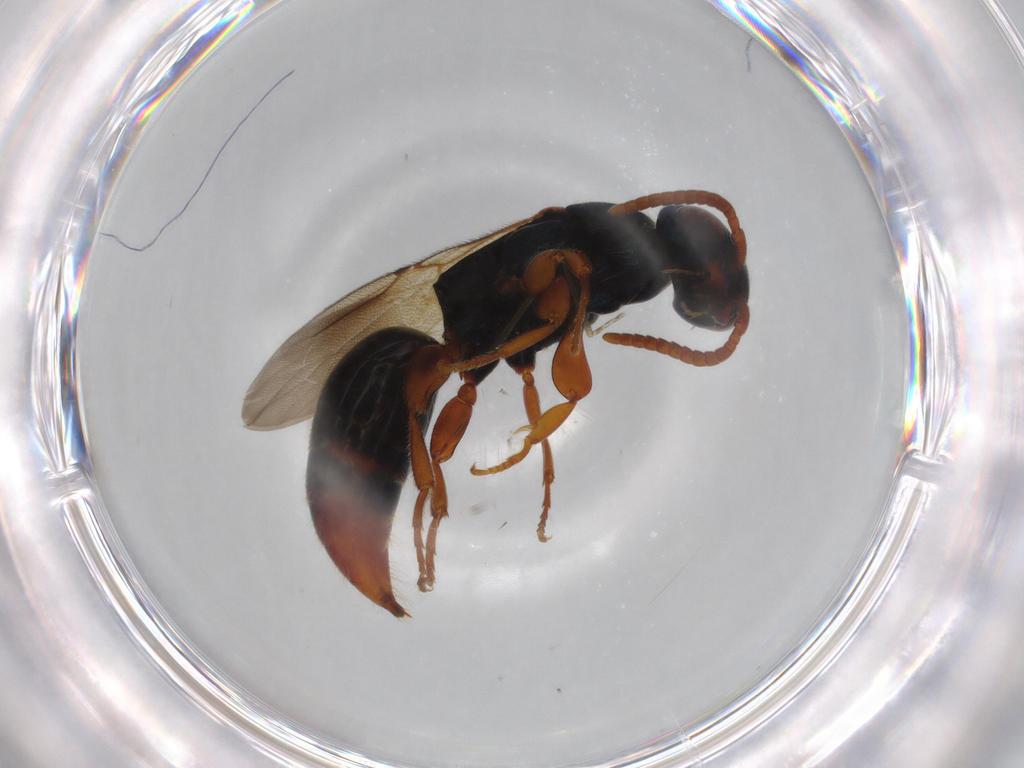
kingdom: Animalia
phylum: Arthropoda
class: Insecta
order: Hymenoptera
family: Bethylidae
